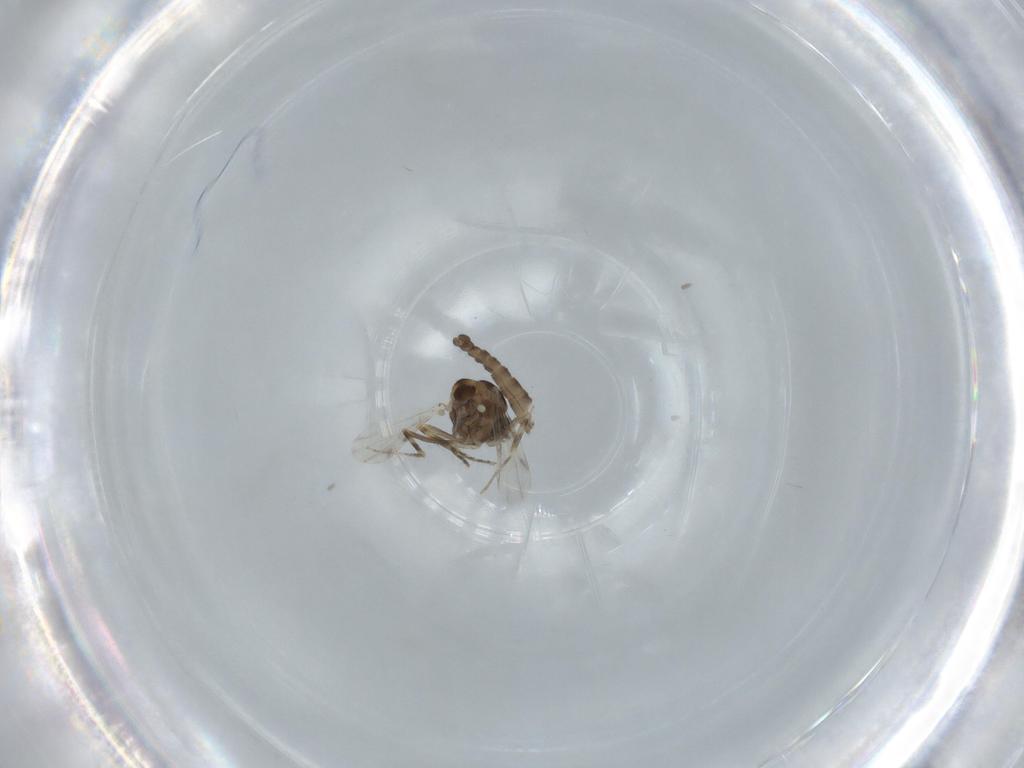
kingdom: Animalia
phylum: Arthropoda
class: Insecta
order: Diptera
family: Ceratopogonidae
